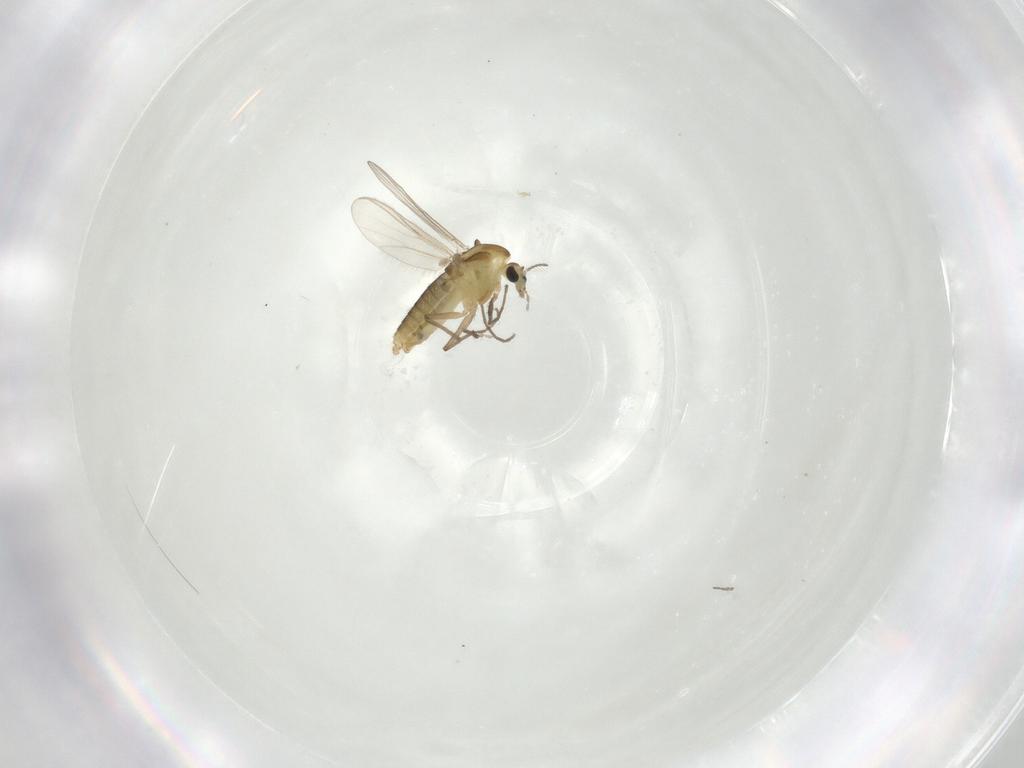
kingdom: Animalia
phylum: Arthropoda
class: Insecta
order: Diptera
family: Chironomidae
